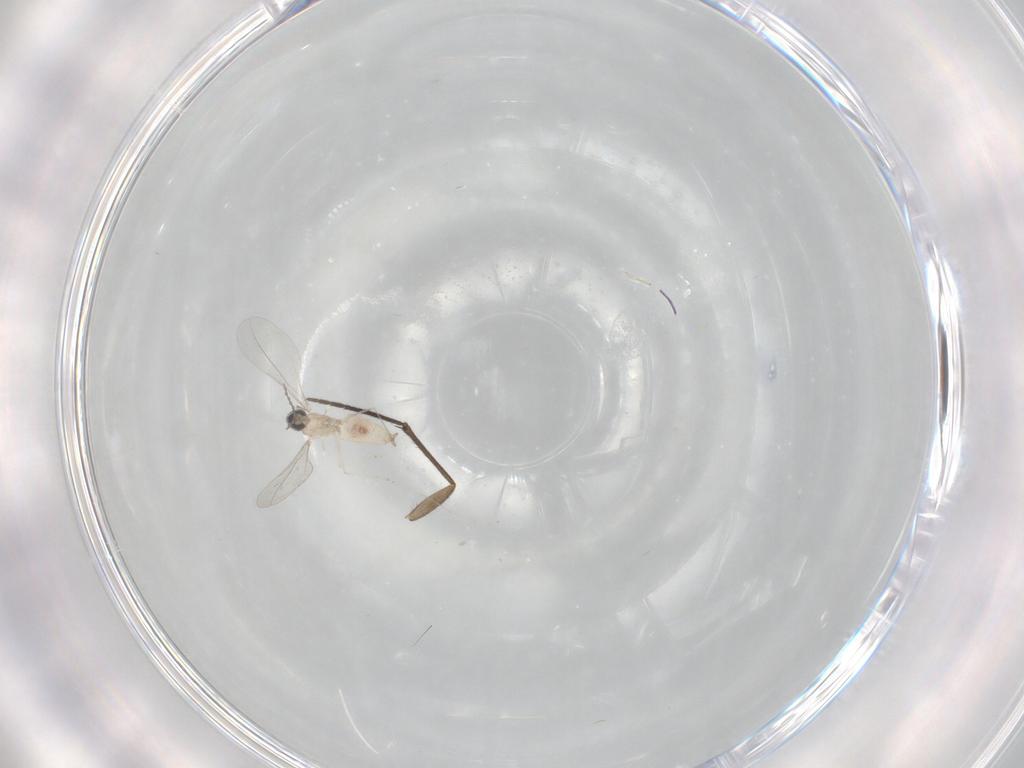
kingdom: Animalia
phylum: Arthropoda
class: Insecta
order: Diptera
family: Cecidomyiidae
